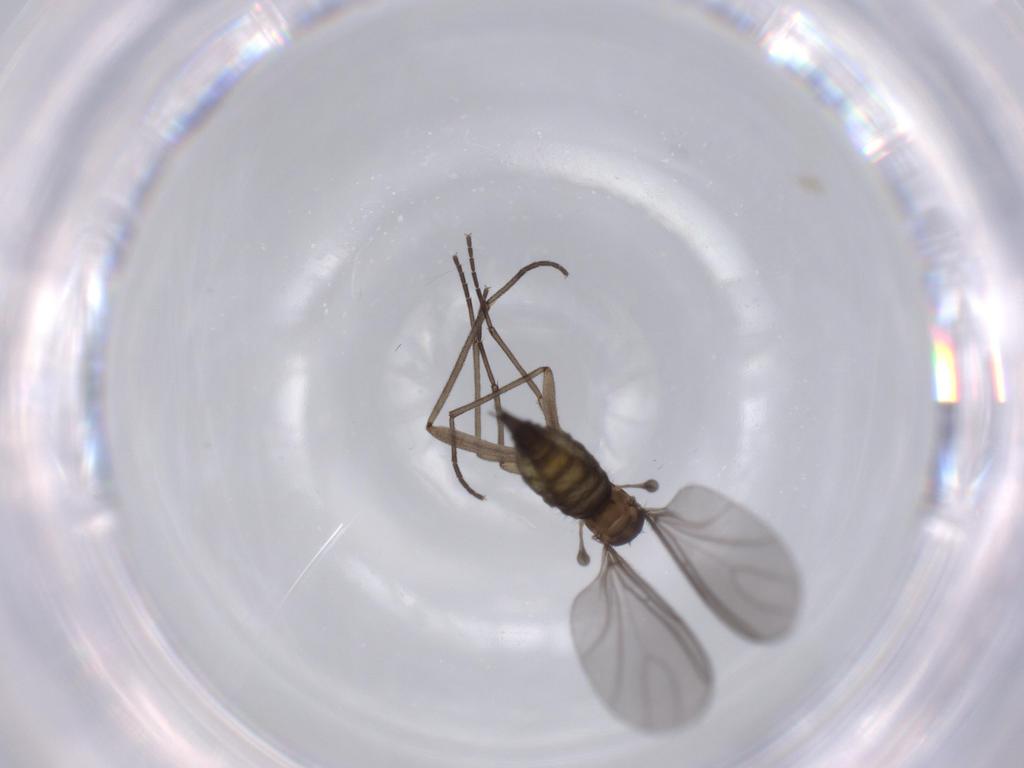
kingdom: Animalia
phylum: Arthropoda
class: Insecta
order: Diptera
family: Sciaridae
